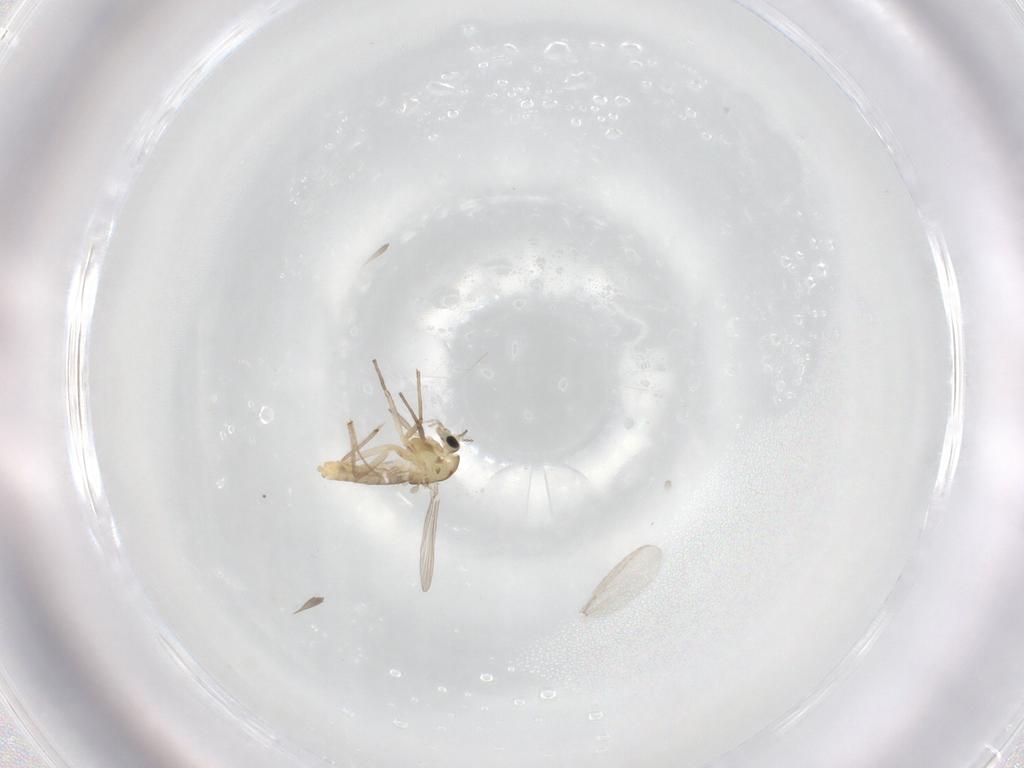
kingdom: Animalia
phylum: Arthropoda
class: Insecta
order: Diptera
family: Chironomidae
